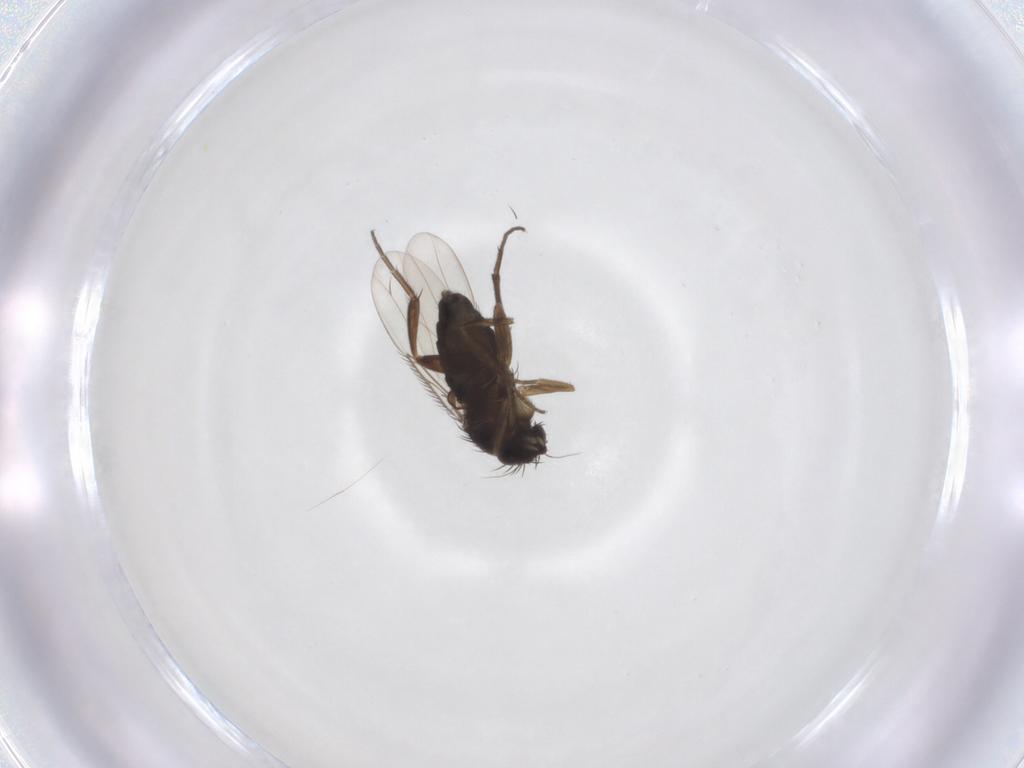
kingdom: Animalia
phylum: Arthropoda
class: Insecta
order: Diptera
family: Phoridae
